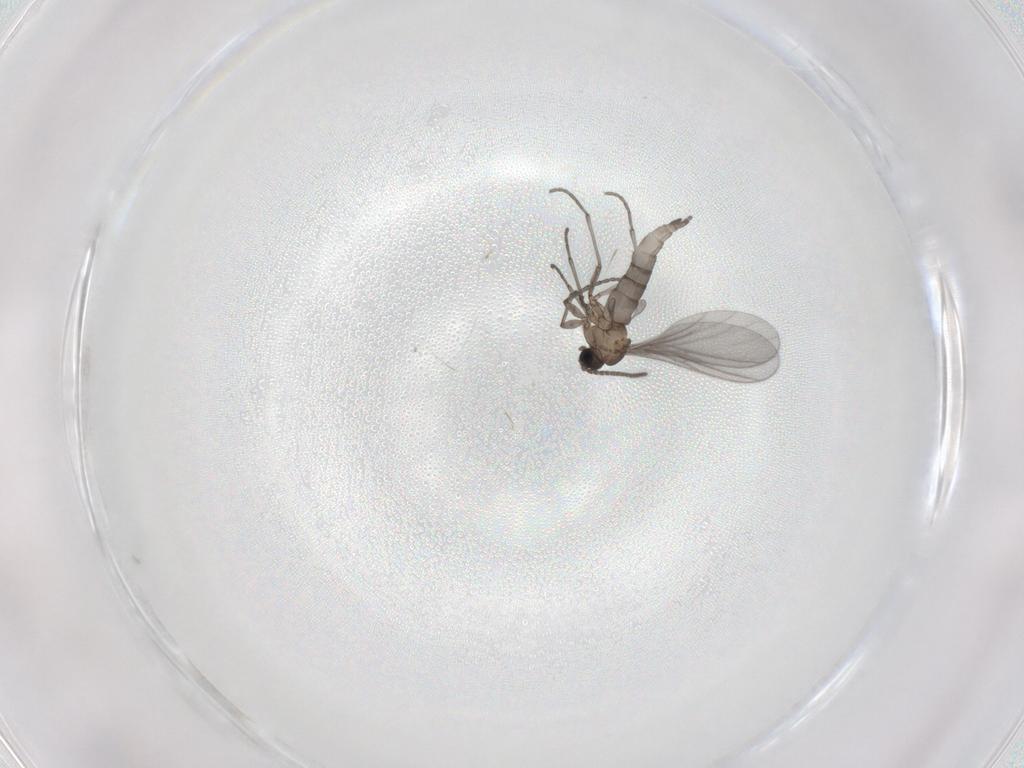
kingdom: Animalia
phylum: Arthropoda
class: Insecta
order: Diptera
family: Sciaridae
